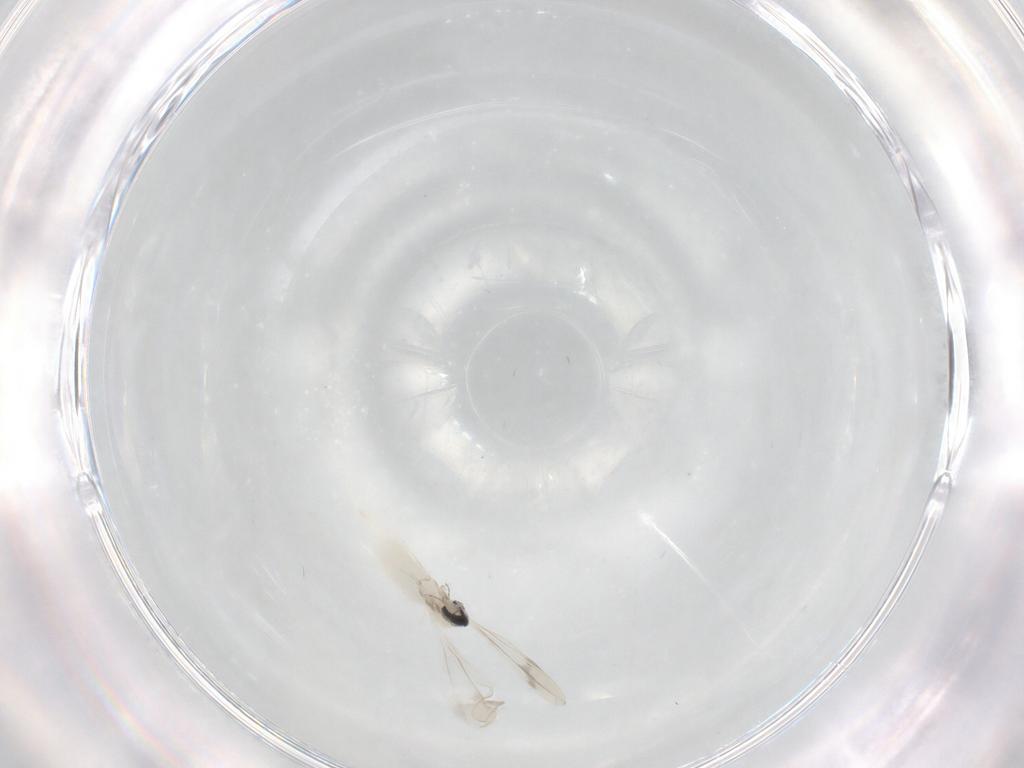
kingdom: Animalia
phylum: Arthropoda
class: Insecta
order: Diptera
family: Cecidomyiidae
